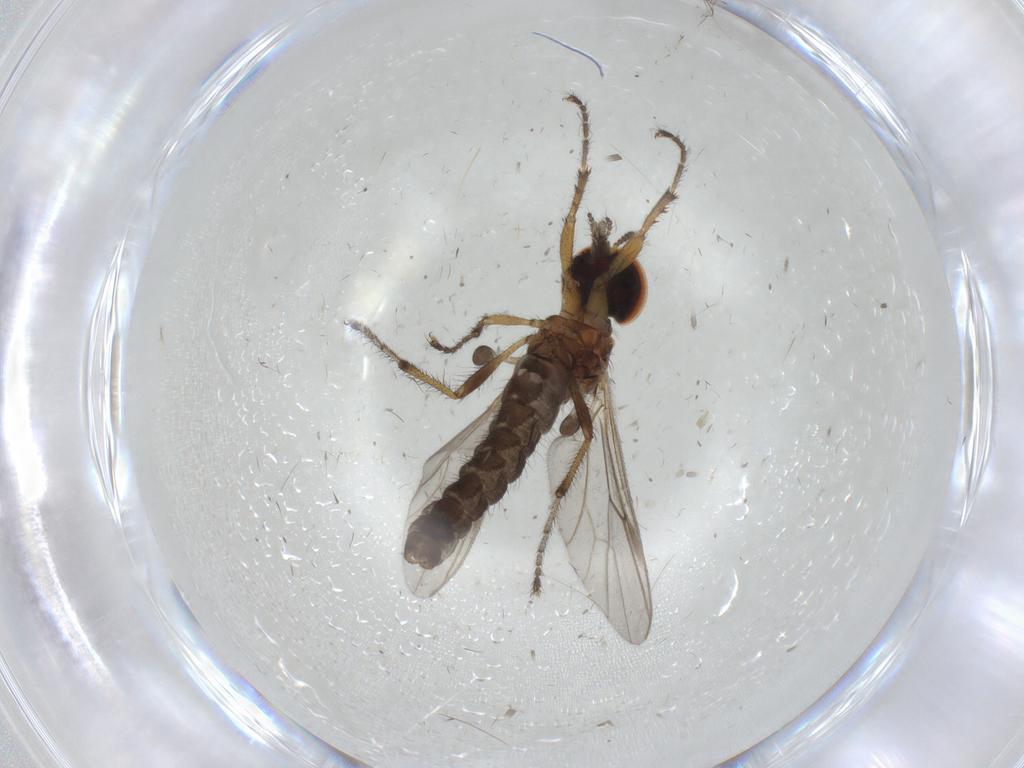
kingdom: Animalia
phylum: Arthropoda
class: Insecta
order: Diptera
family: Bibionidae
